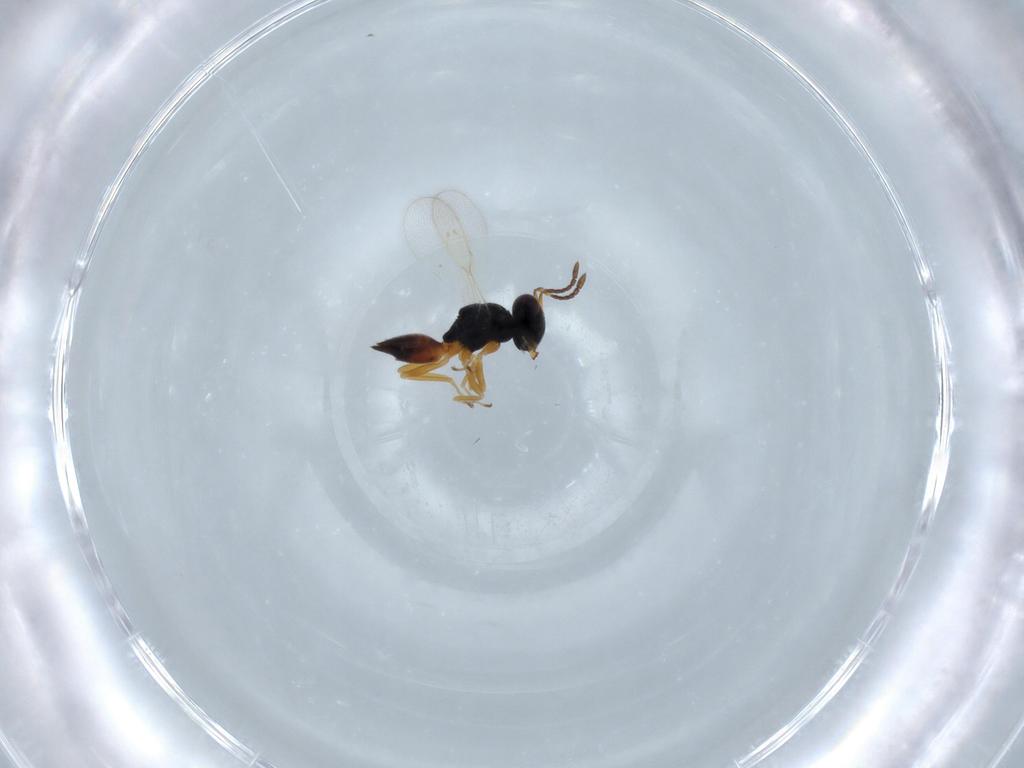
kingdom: Animalia
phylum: Arthropoda
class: Insecta
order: Hymenoptera
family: Pteromalidae
